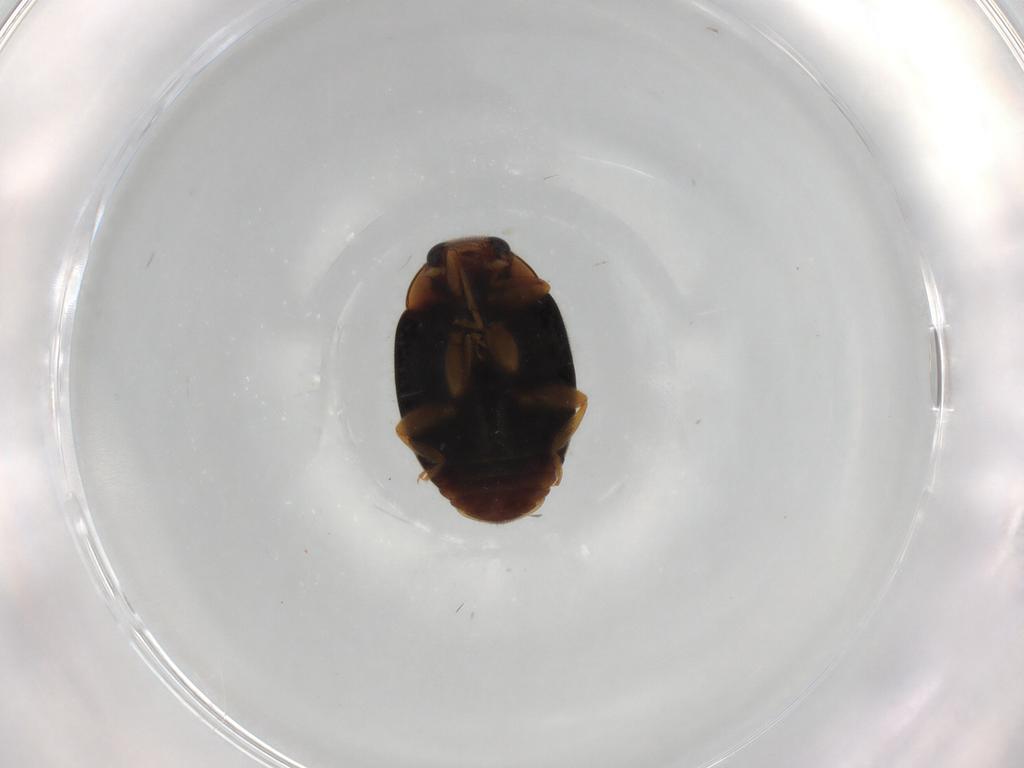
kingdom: Animalia
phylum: Arthropoda
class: Insecta
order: Coleoptera
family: Coccinellidae
